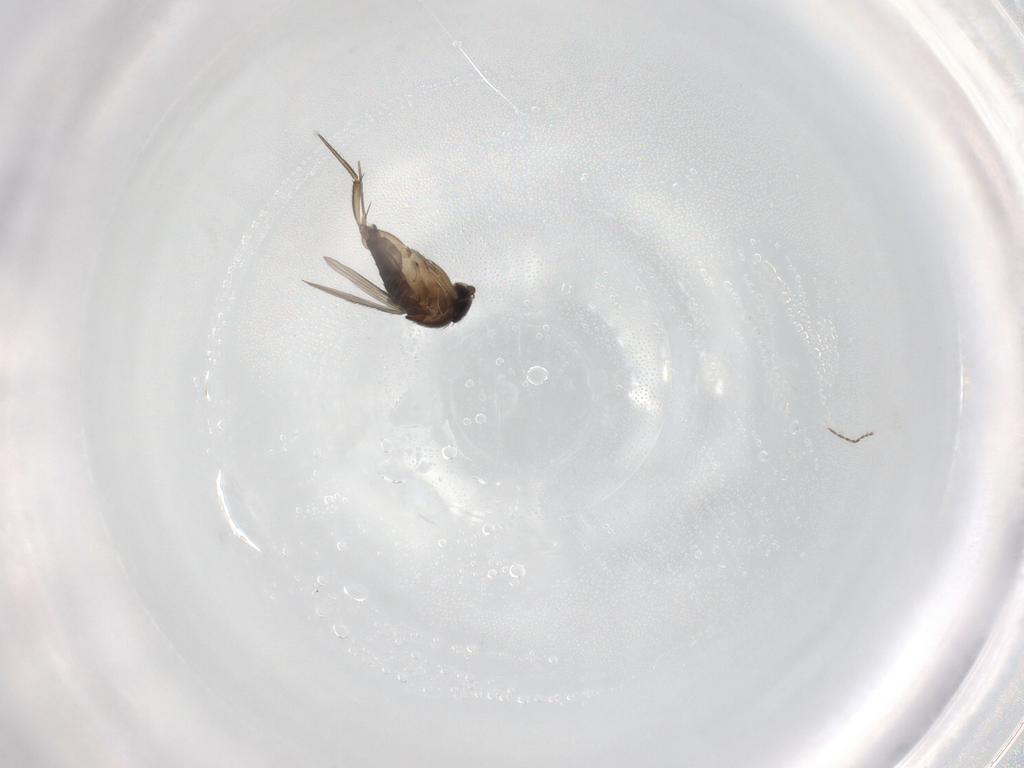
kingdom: Animalia
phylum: Arthropoda
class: Insecta
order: Diptera
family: Phoridae
